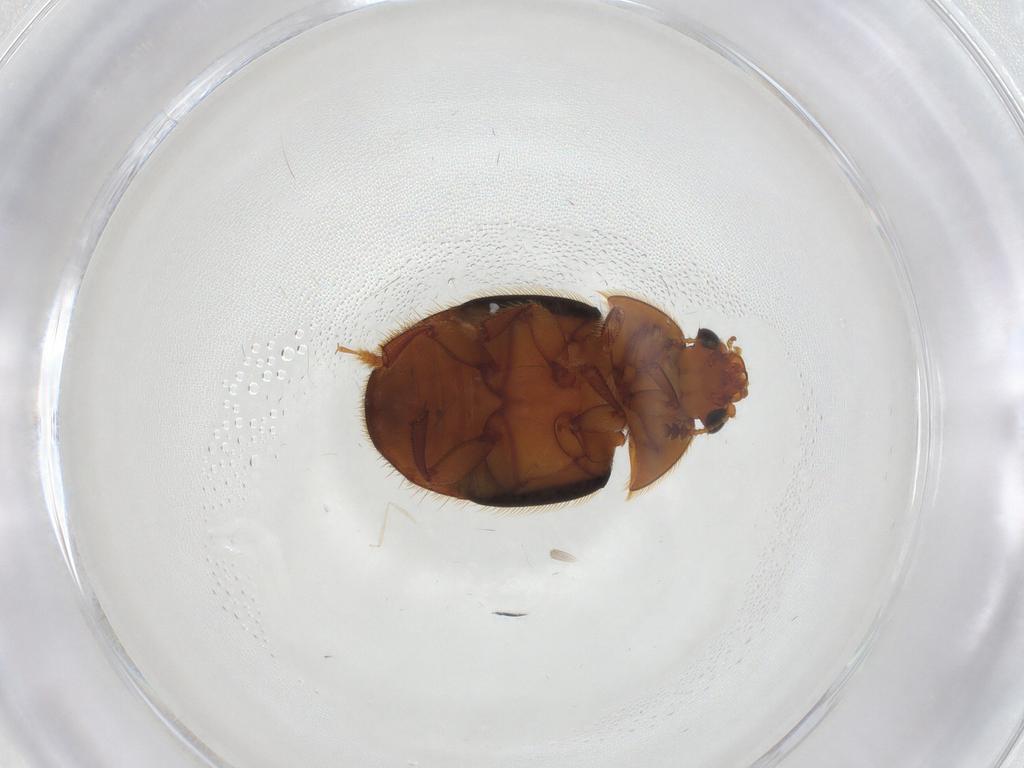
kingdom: Animalia
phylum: Arthropoda
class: Insecta
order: Coleoptera
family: Nitidulidae
